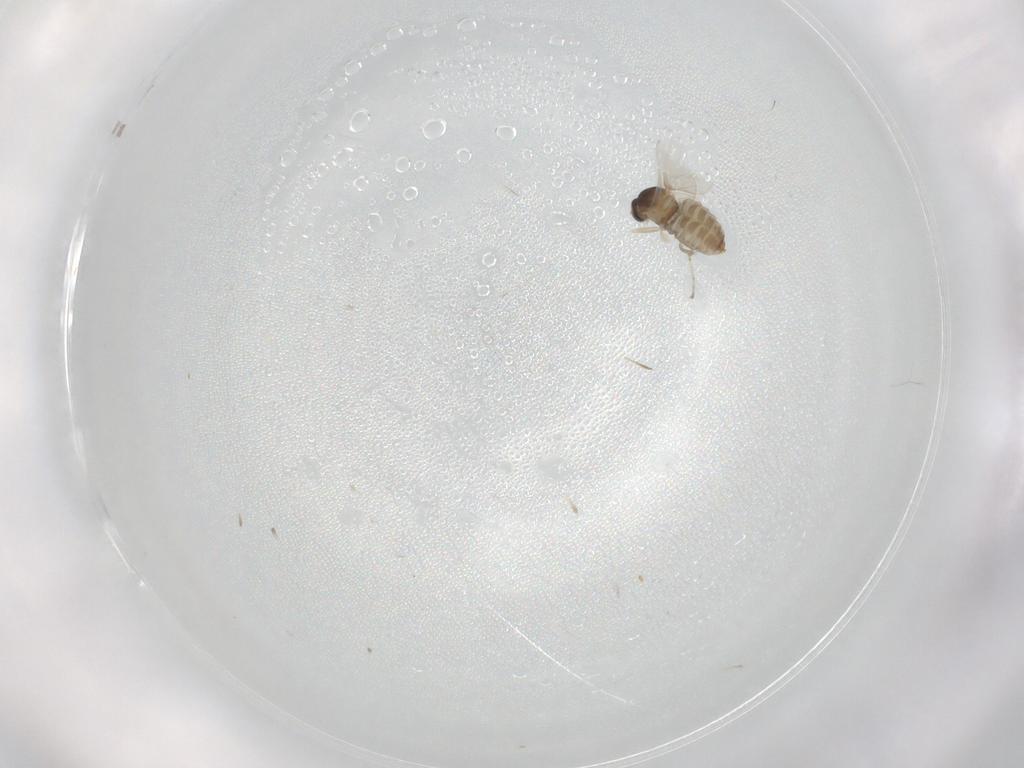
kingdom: Animalia
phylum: Arthropoda
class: Insecta
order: Diptera
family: Cecidomyiidae
